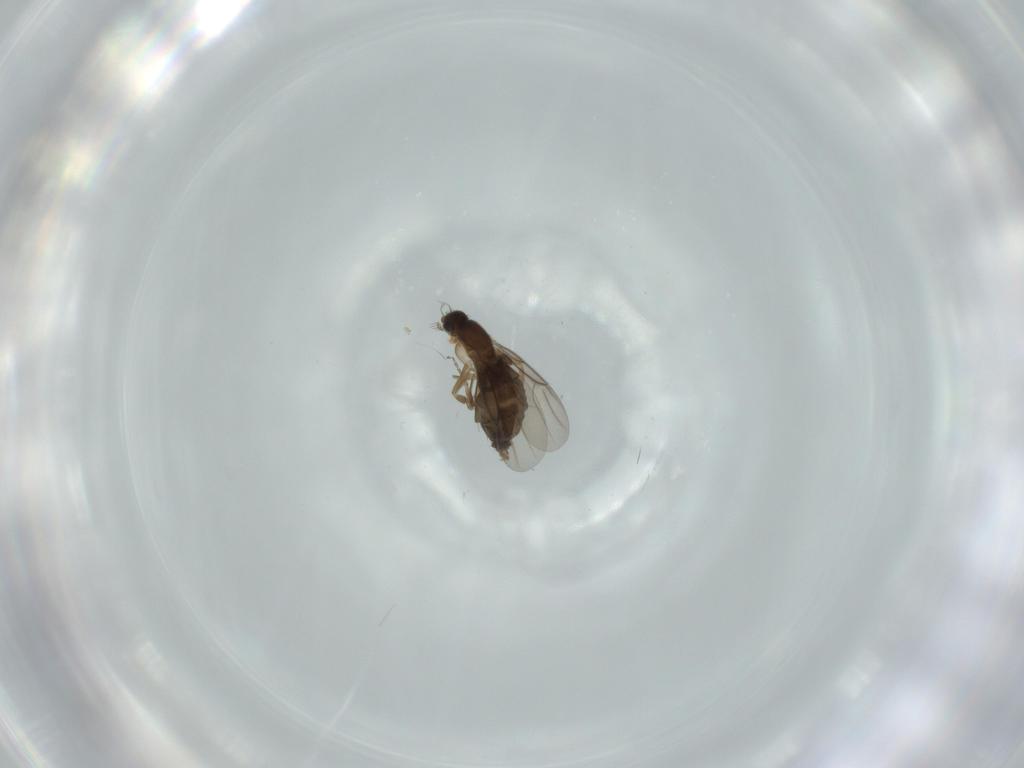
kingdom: Animalia
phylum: Arthropoda
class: Insecta
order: Diptera
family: Phoridae
